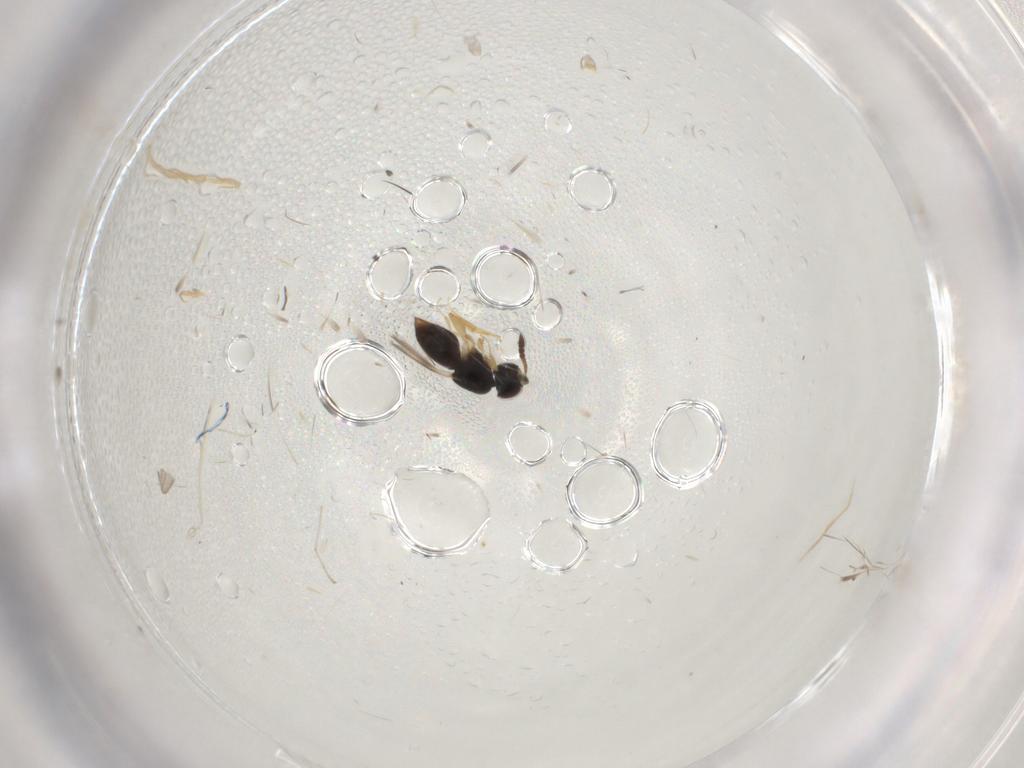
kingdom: Animalia
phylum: Arthropoda
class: Insecta
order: Diptera
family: Cecidomyiidae
